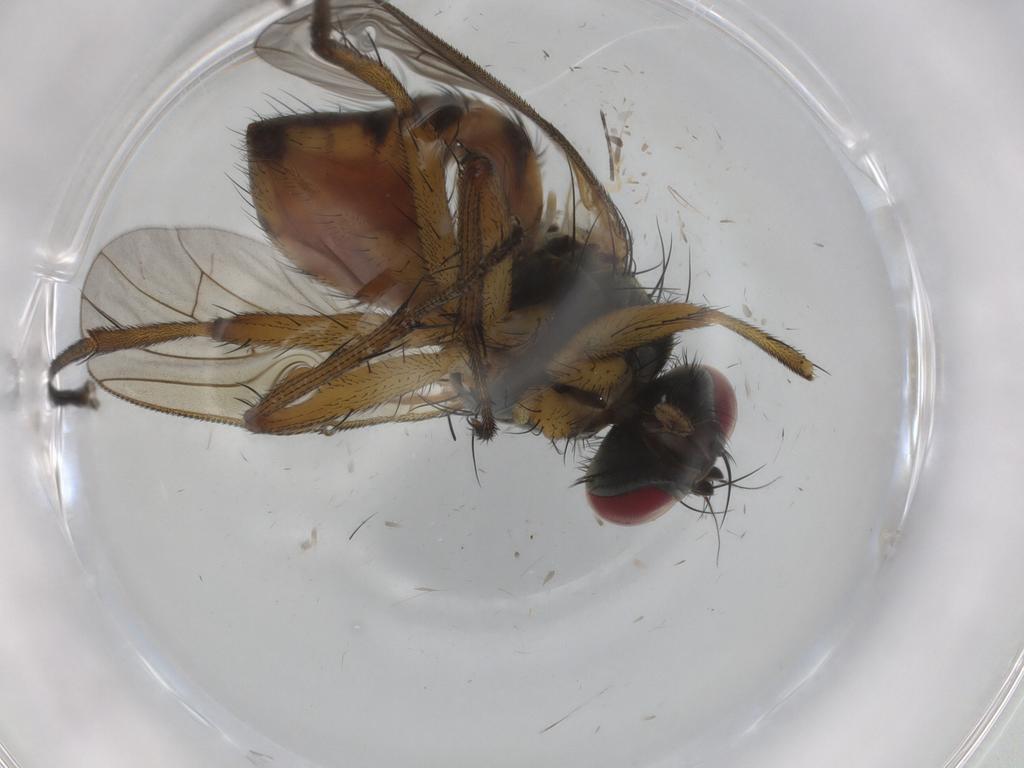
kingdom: Animalia
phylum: Arthropoda
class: Insecta
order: Diptera
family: Muscidae
